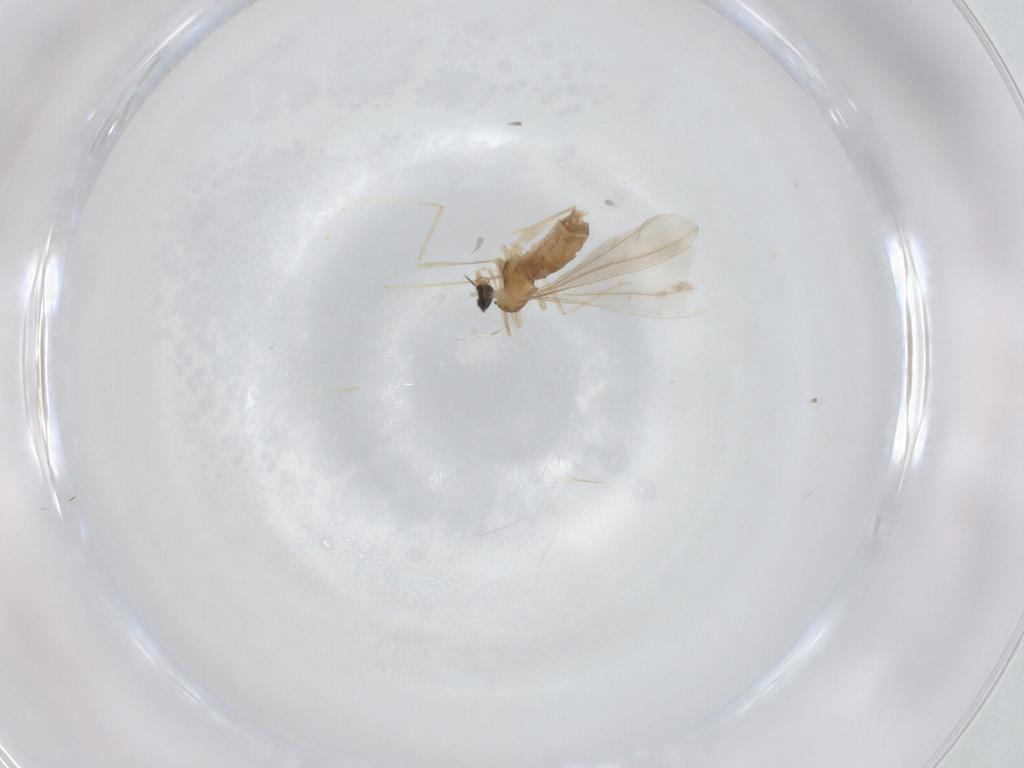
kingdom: Animalia
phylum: Arthropoda
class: Insecta
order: Diptera
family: Cecidomyiidae
